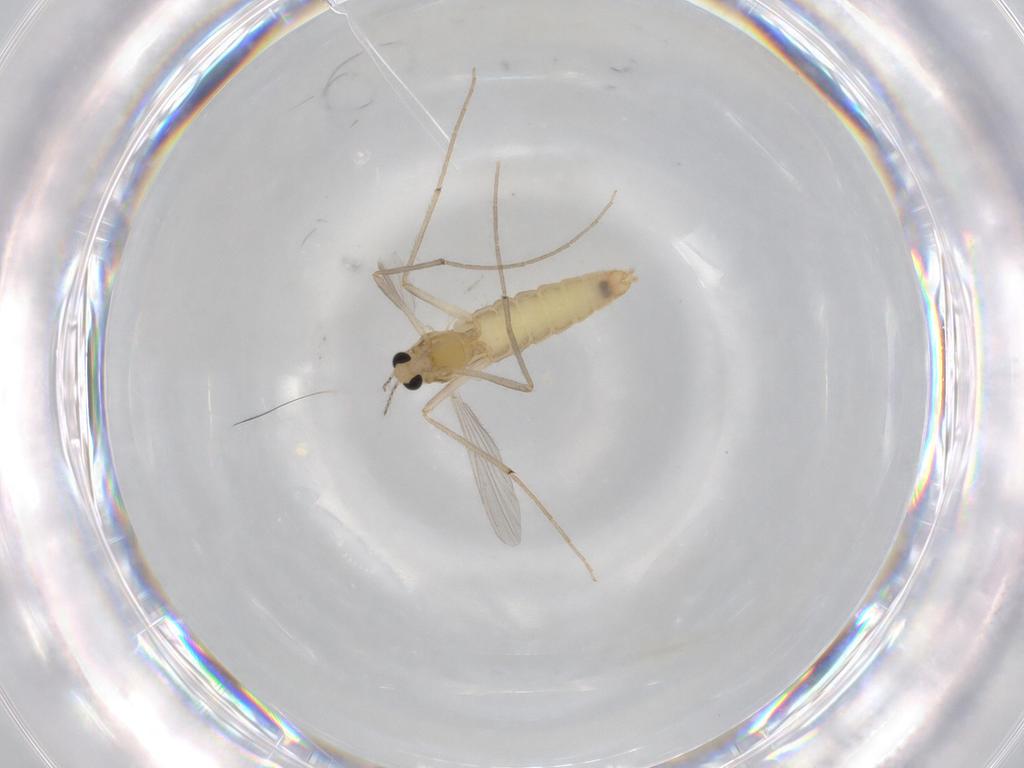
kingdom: Animalia
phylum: Arthropoda
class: Insecta
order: Diptera
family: Chironomidae
